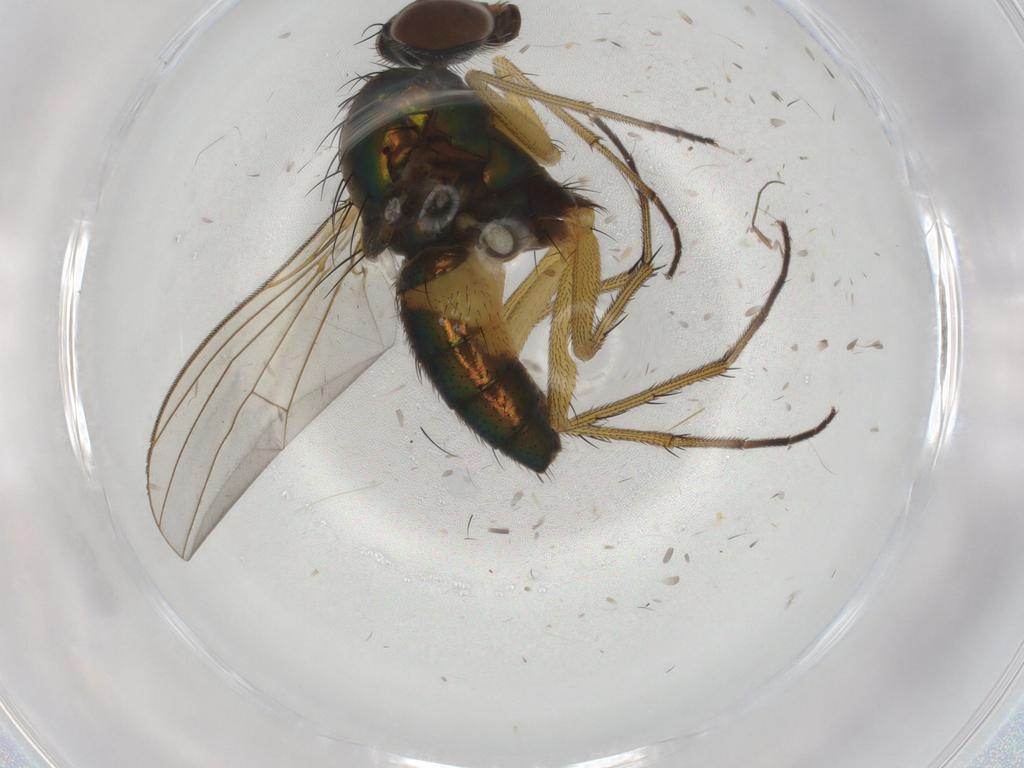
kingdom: Animalia
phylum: Arthropoda
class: Insecta
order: Diptera
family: Chironomidae
